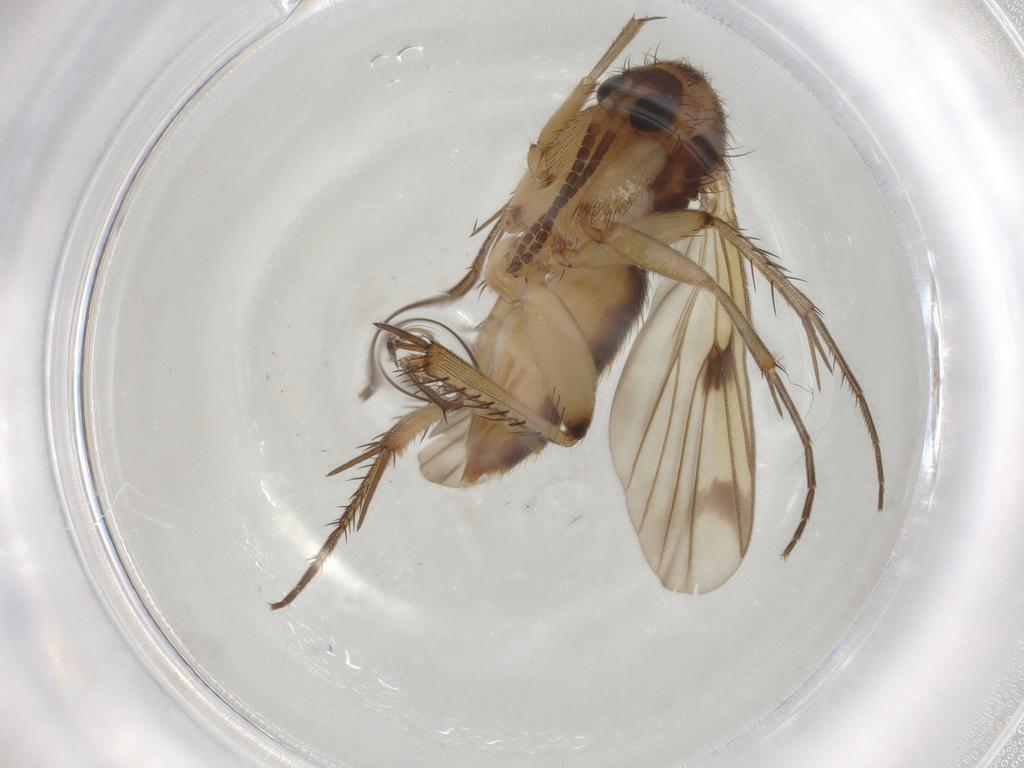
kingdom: Animalia
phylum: Arthropoda
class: Insecta
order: Diptera
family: Mycetophilidae
